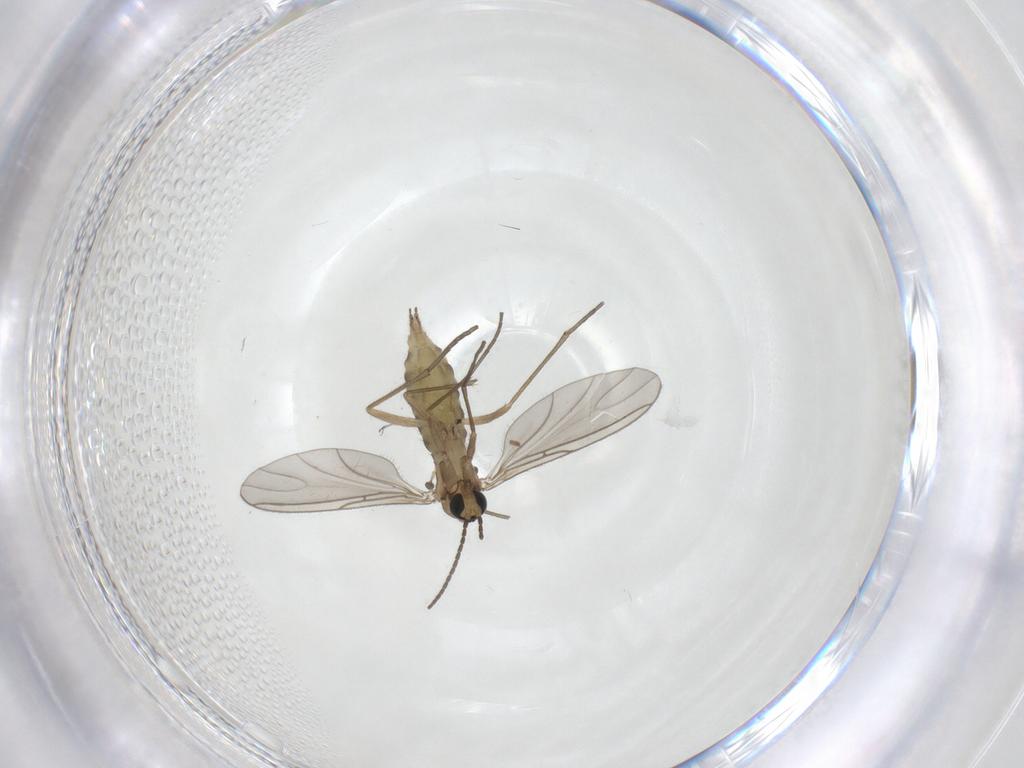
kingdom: Animalia
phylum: Arthropoda
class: Insecta
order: Diptera
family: Sciaridae
